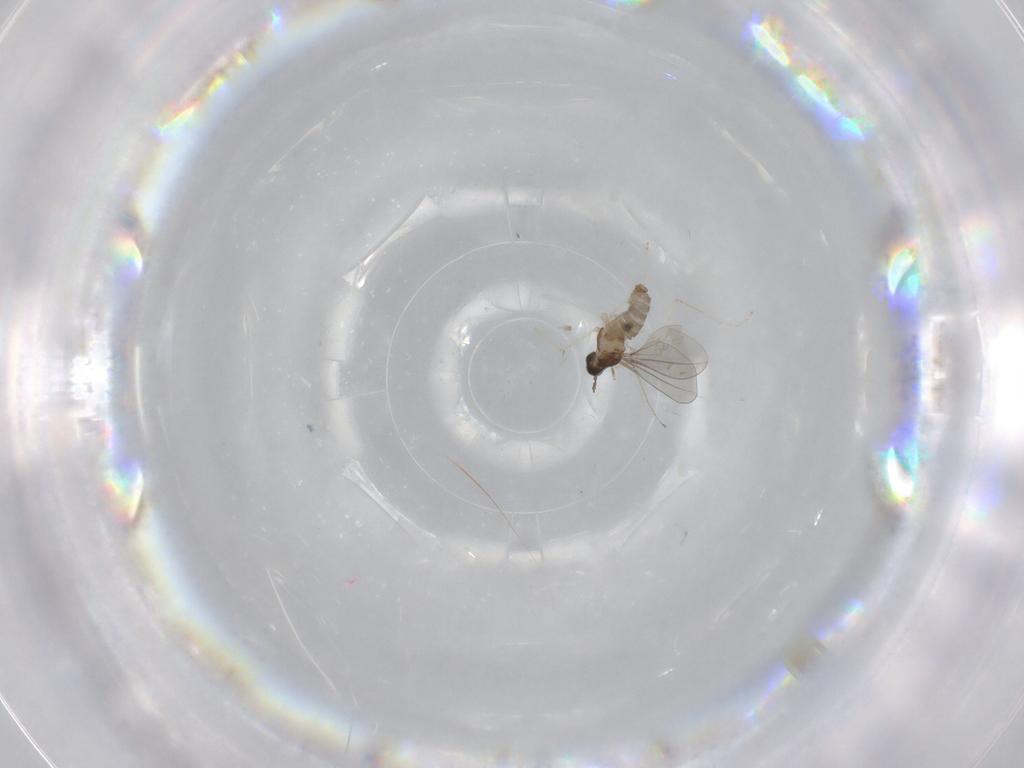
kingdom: Animalia
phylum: Arthropoda
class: Insecta
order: Diptera
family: Cecidomyiidae
